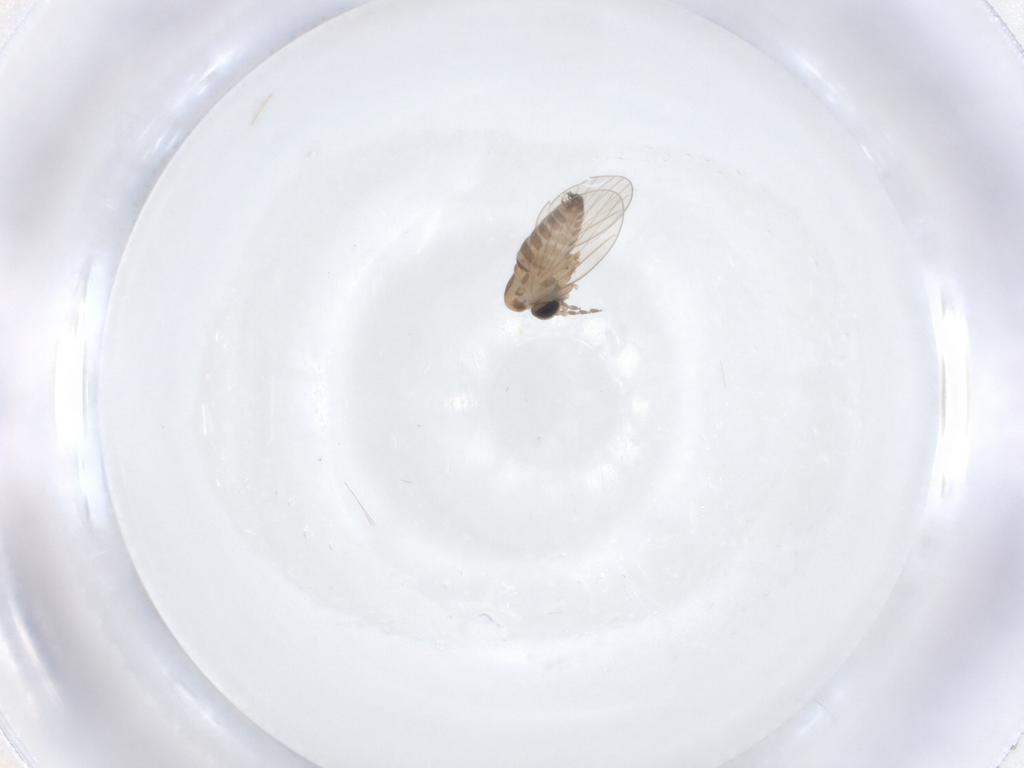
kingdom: Animalia
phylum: Arthropoda
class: Insecta
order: Diptera
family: Psychodidae
